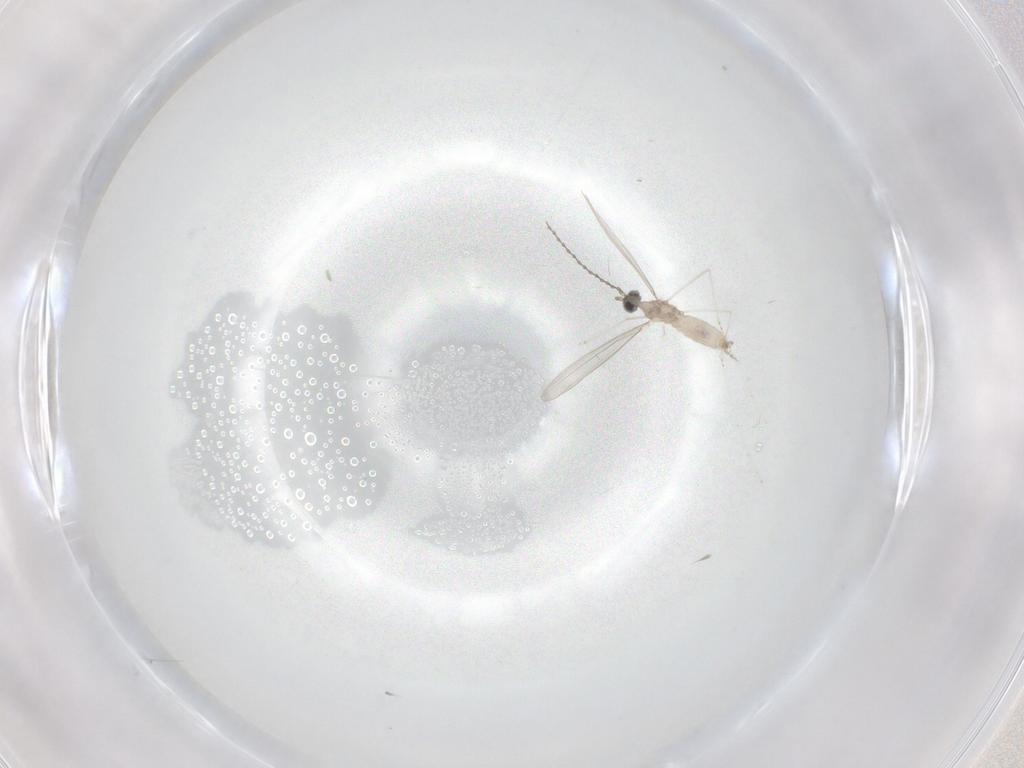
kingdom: Animalia
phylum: Arthropoda
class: Insecta
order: Diptera
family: Cecidomyiidae
